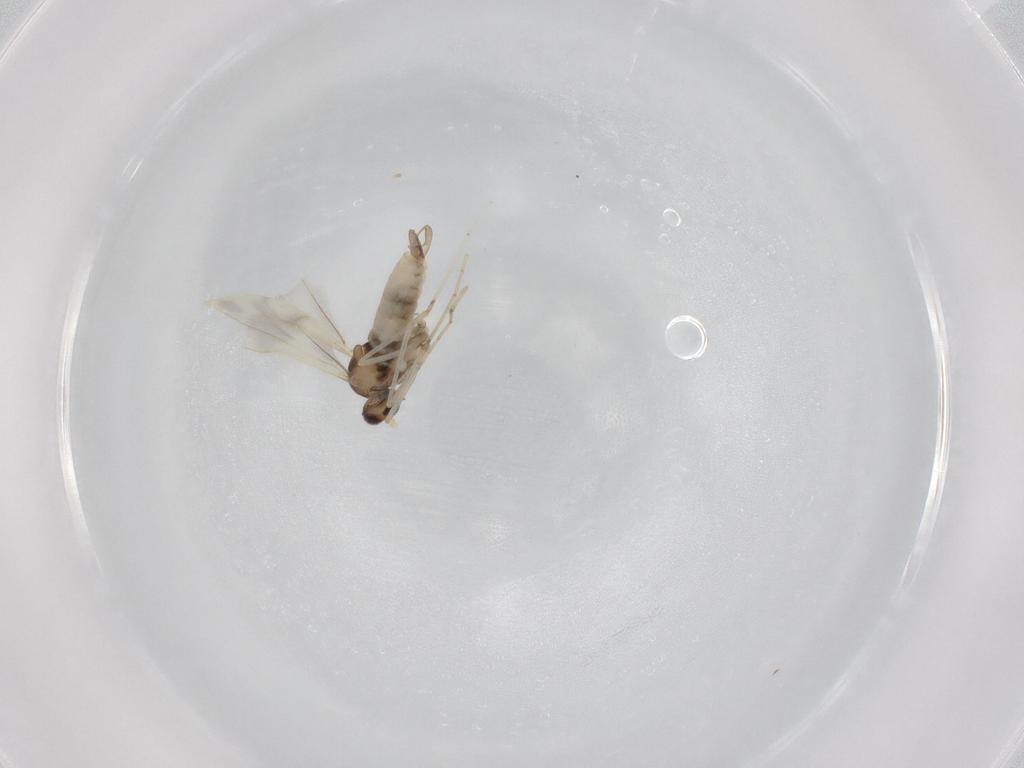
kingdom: Animalia
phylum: Arthropoda
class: Insecta
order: Diptera
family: Cecidomyiidae
